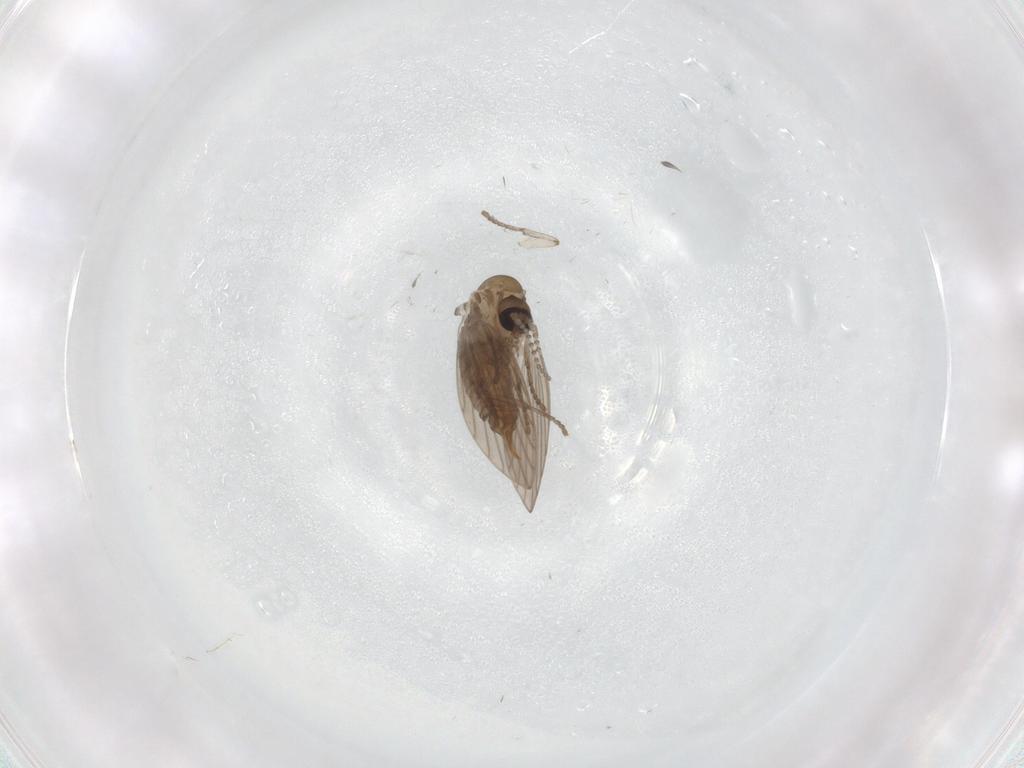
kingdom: Animalia
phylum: Arthropoda
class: Insecta
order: Diptera
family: Psychodidae
